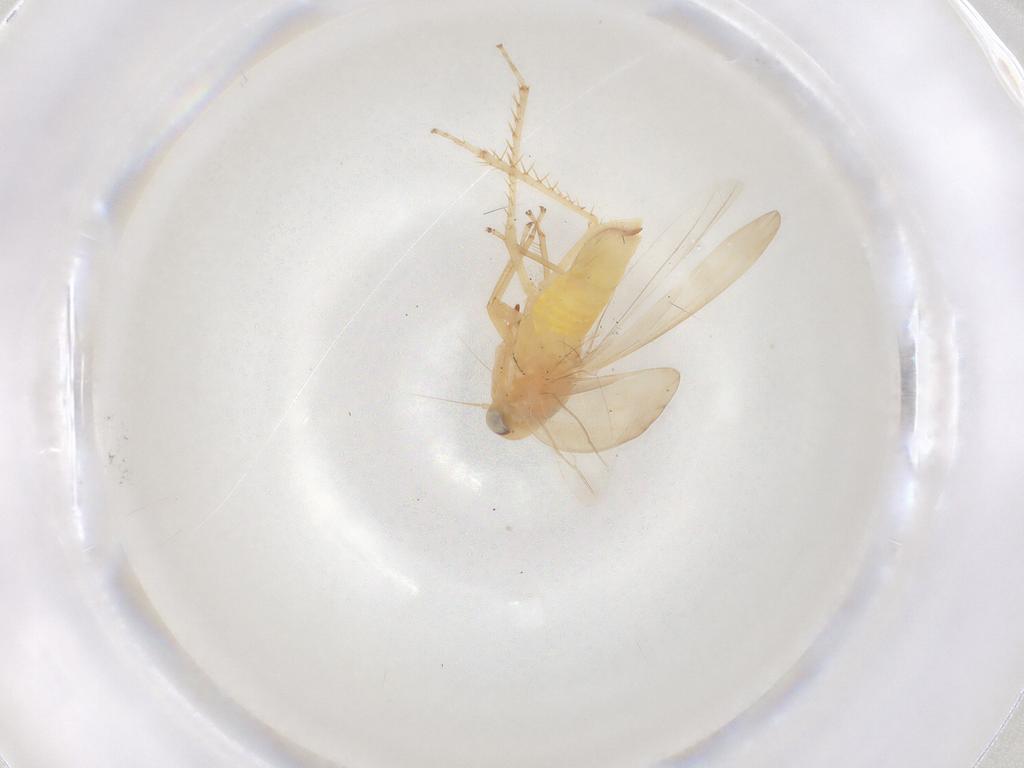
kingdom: Animalia
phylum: Arthropoda
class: Insecta
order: Hemiptera
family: Cicadellidae
